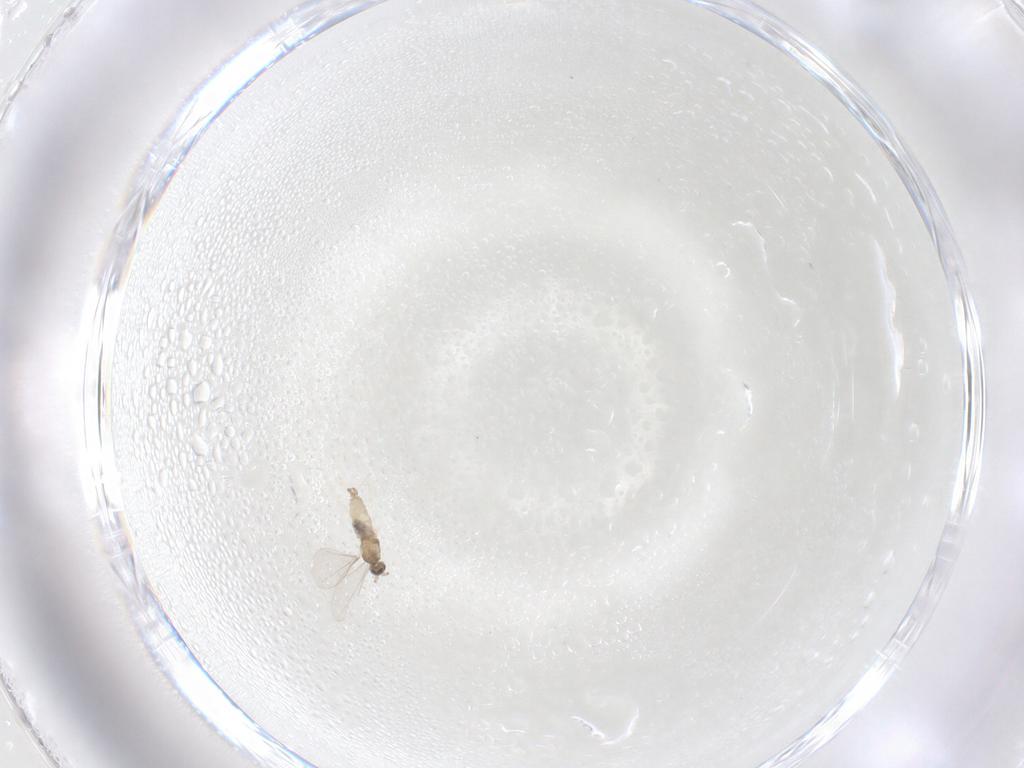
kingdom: Animalia
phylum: Arthropoda
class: Insecta
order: Diptera
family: Cecidomyiidae
